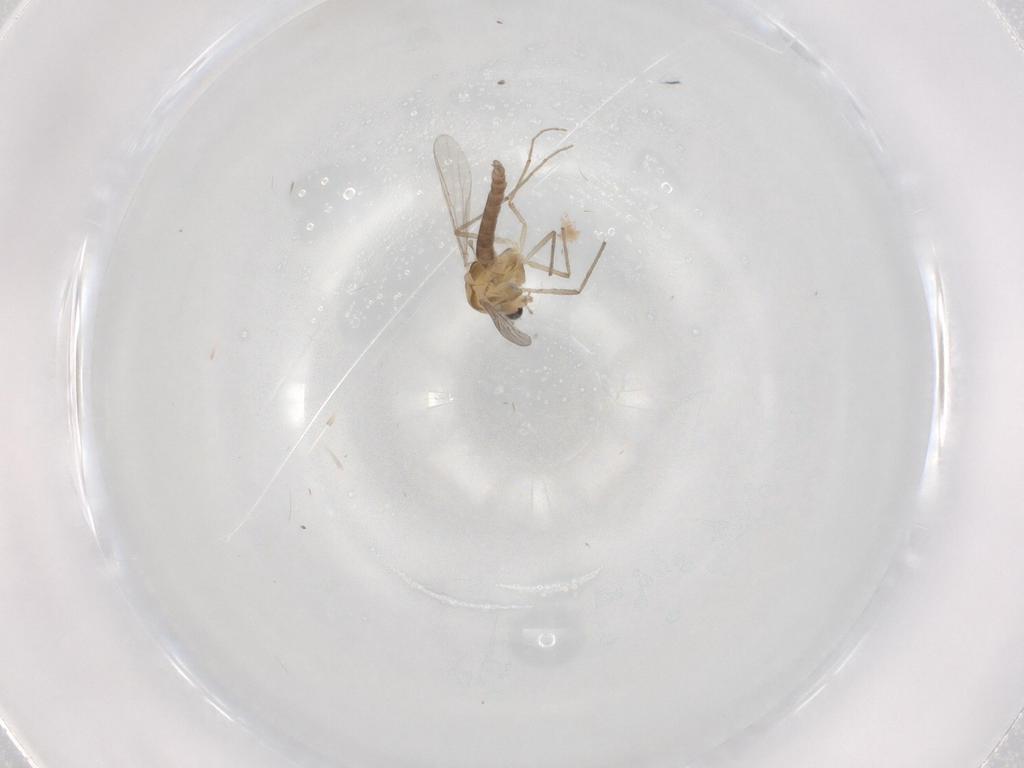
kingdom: Animalia
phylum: Arthropoda
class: Insecta
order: Diptera
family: Chironomidae
